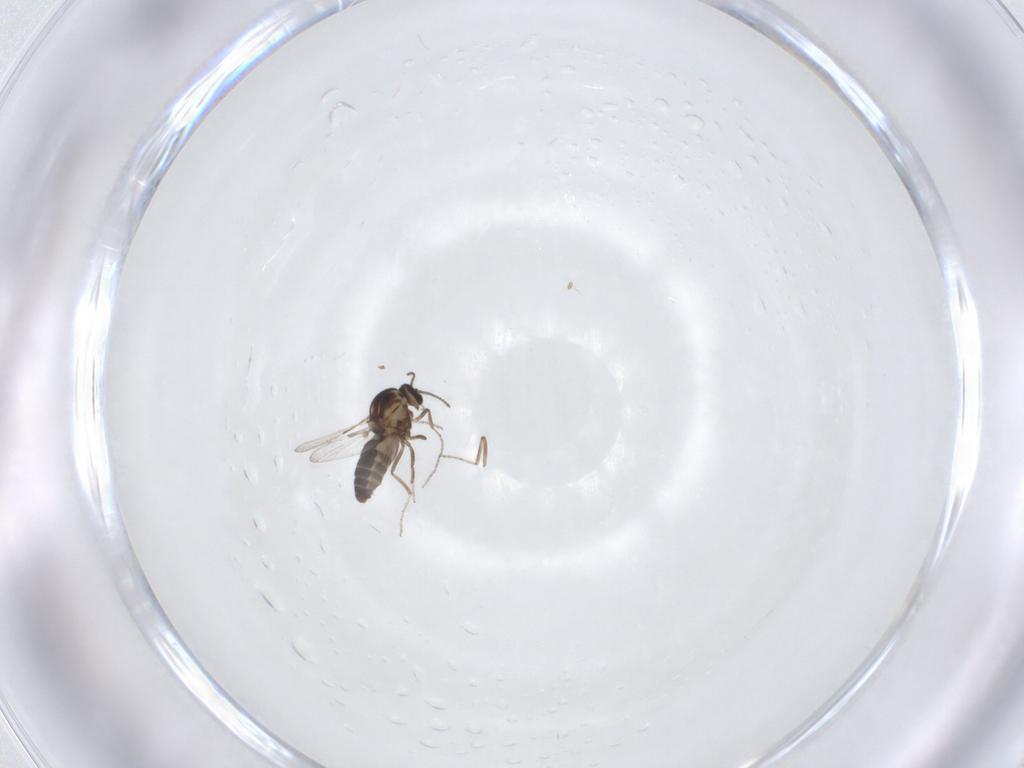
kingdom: Animalia
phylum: Arthropoda
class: Insecta
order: Diptera
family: Ceratopogonidae
